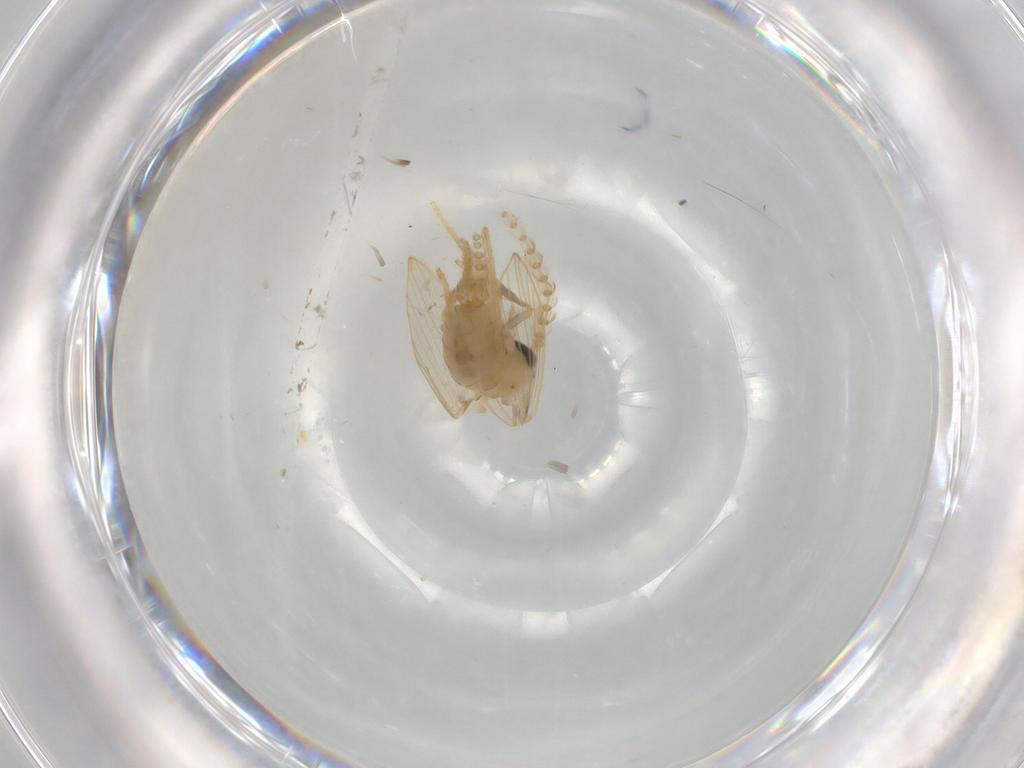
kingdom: Animalia
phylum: Arthropoda
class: Insecta
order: Diptera
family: Psychodidae
